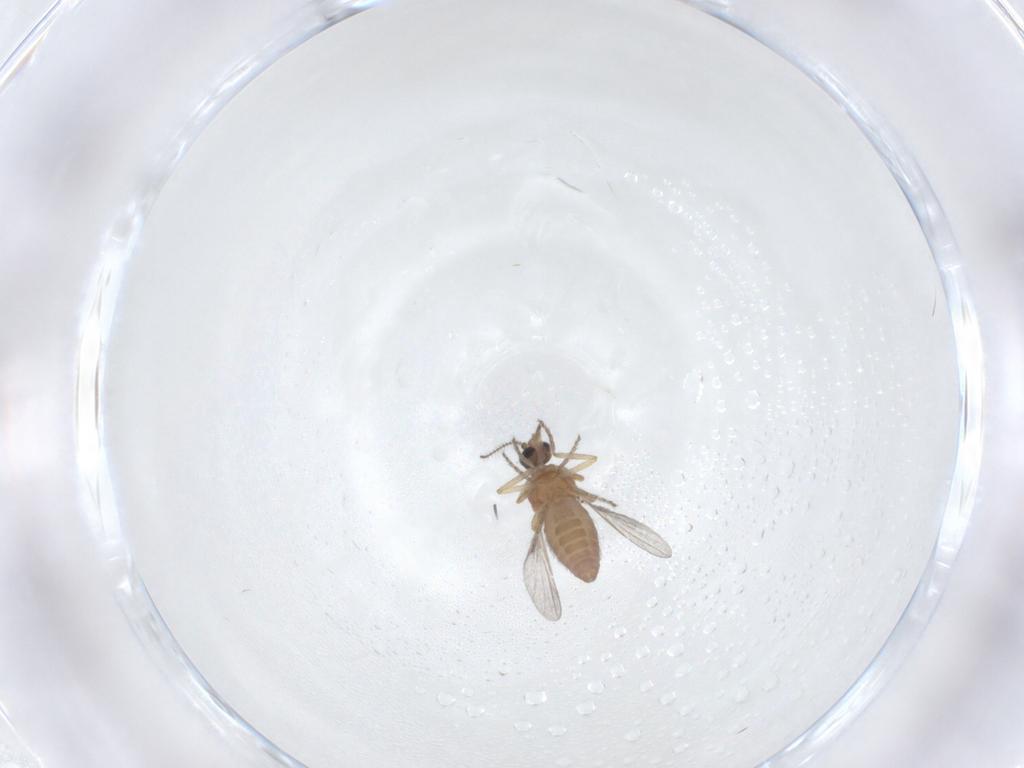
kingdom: Animalia
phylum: Arthropoda
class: Insecta
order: Diptera
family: Ceratopogonidae
